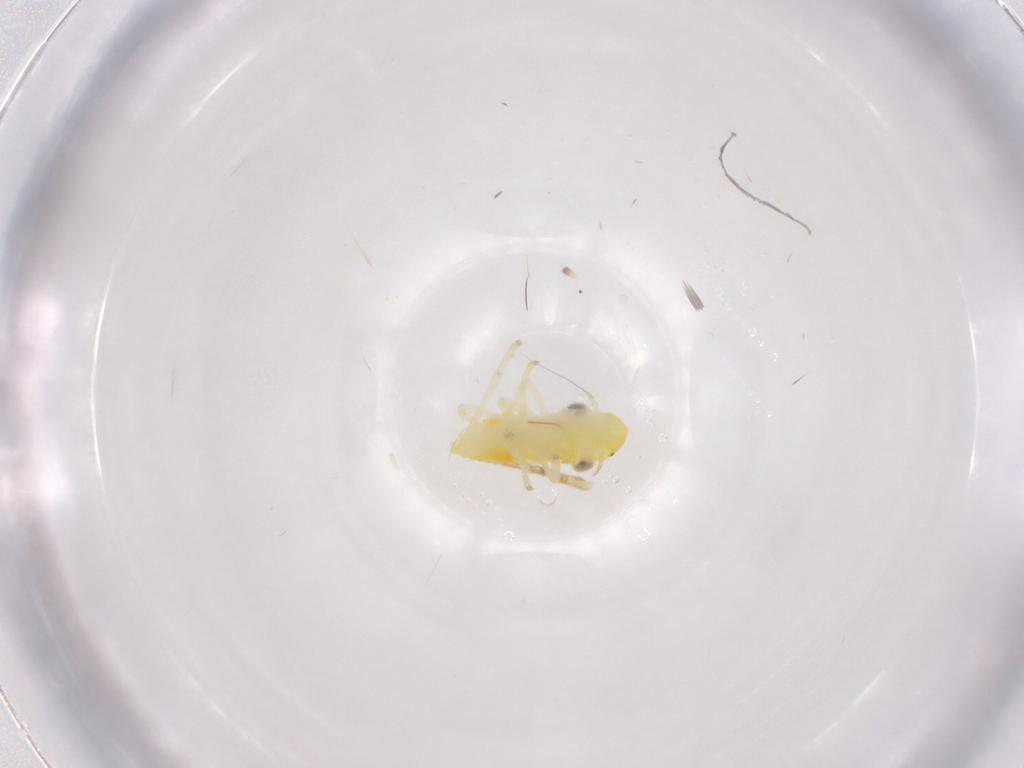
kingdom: Animalia
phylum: Arthropoda
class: Insecta
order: Hemiptera
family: Cicadellidae
